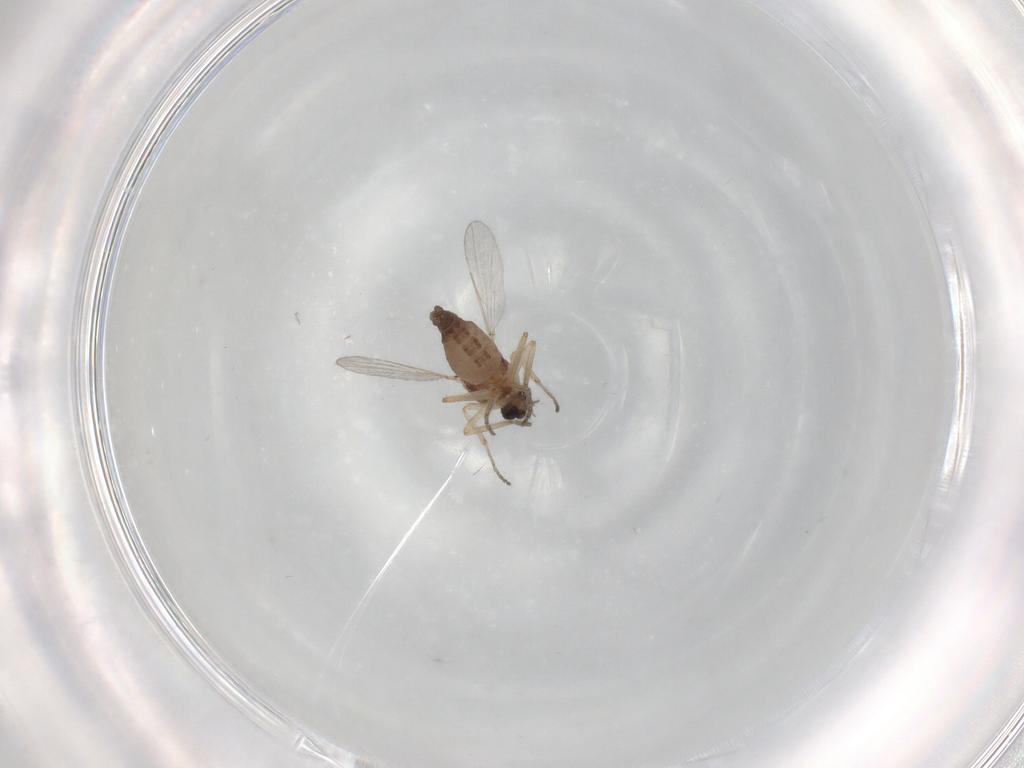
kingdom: Animalia
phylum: Arthropoda
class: Insecta
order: Diptera
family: Ceratopogonidae
